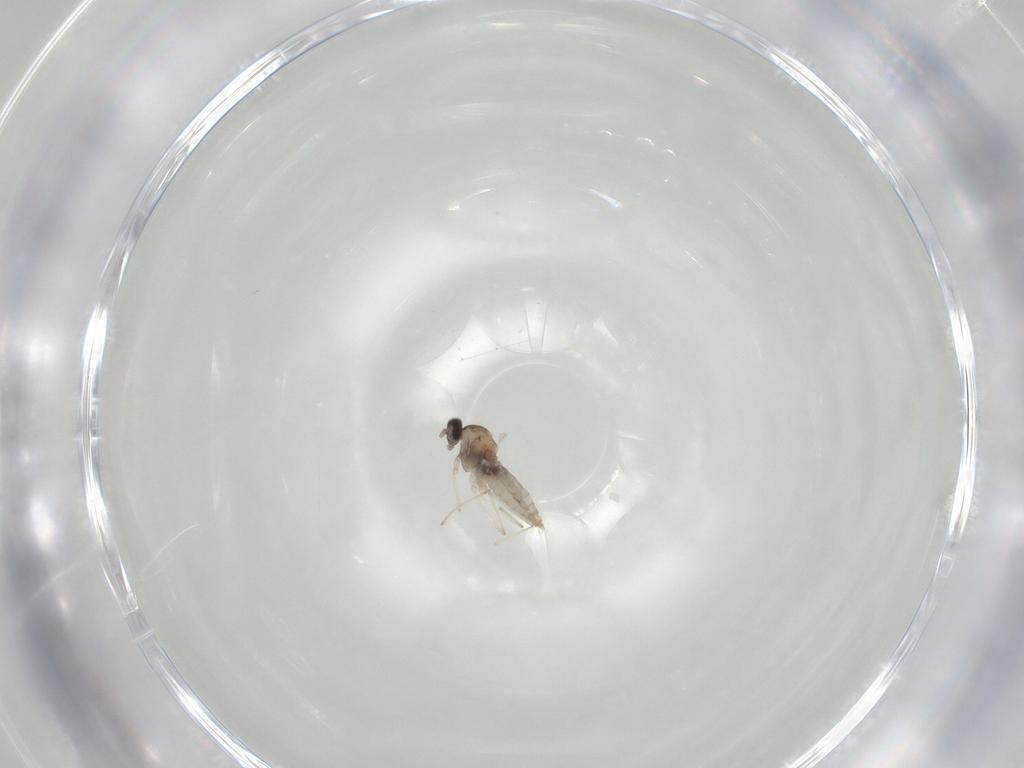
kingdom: Animalia
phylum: Arthropoda
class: Insecta
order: Diptera
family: Cecidomyiidae
